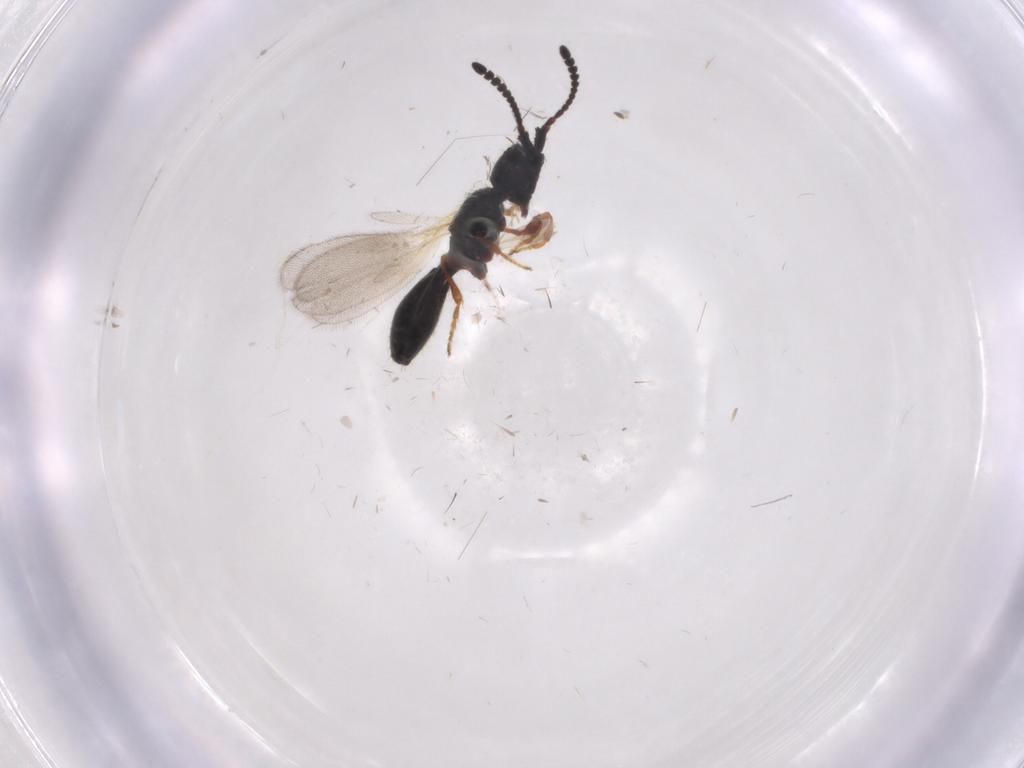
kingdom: Animalia
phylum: Arthropoda
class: Insecta
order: Hymenoptera
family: Diapriidae
